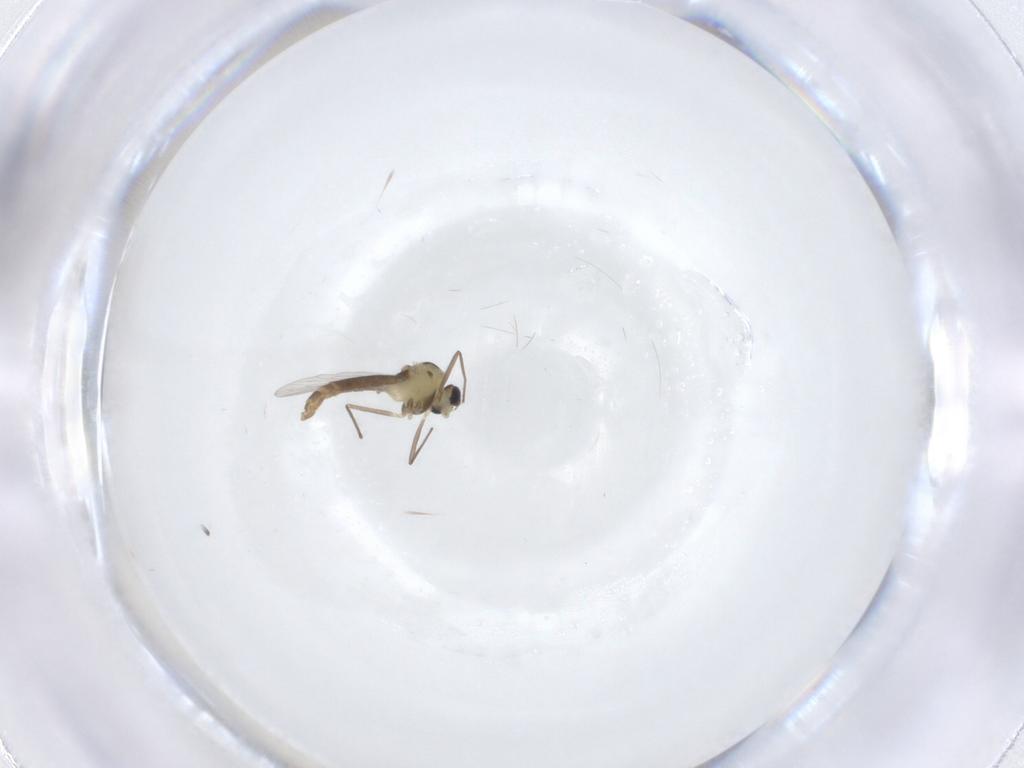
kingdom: Animalia
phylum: Arthropoda
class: Insecta
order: Diptera
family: Chironomidae
